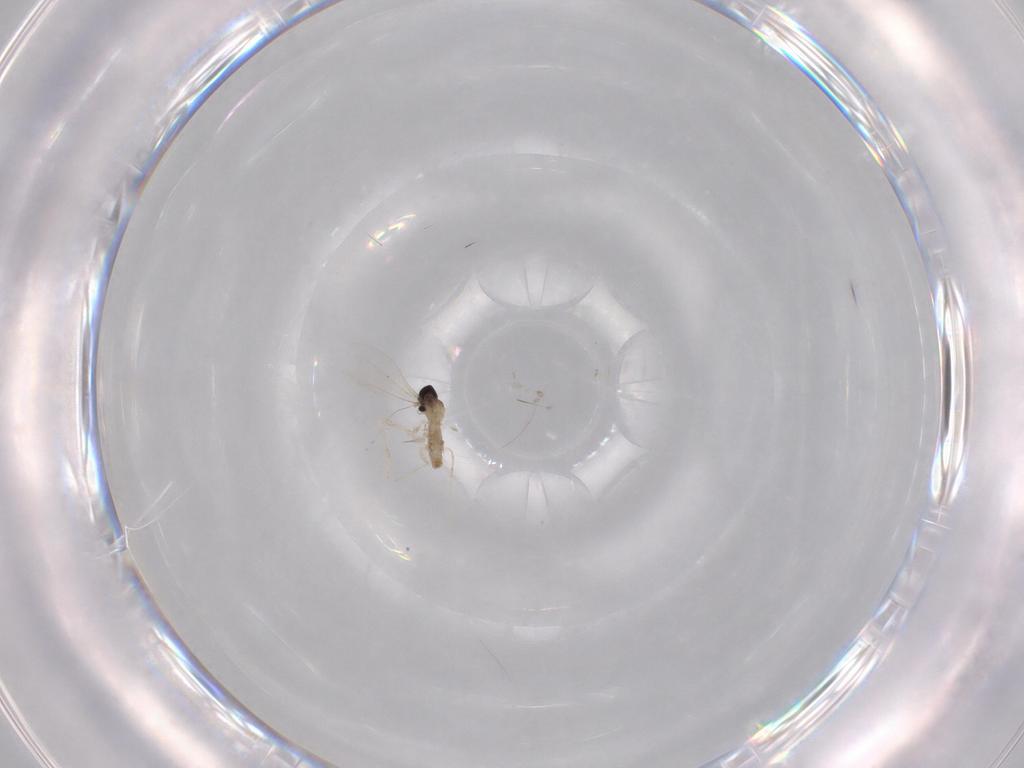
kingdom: Animalia
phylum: Arthropoda
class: Insecta
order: Diptera
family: Cecidomyiidae
